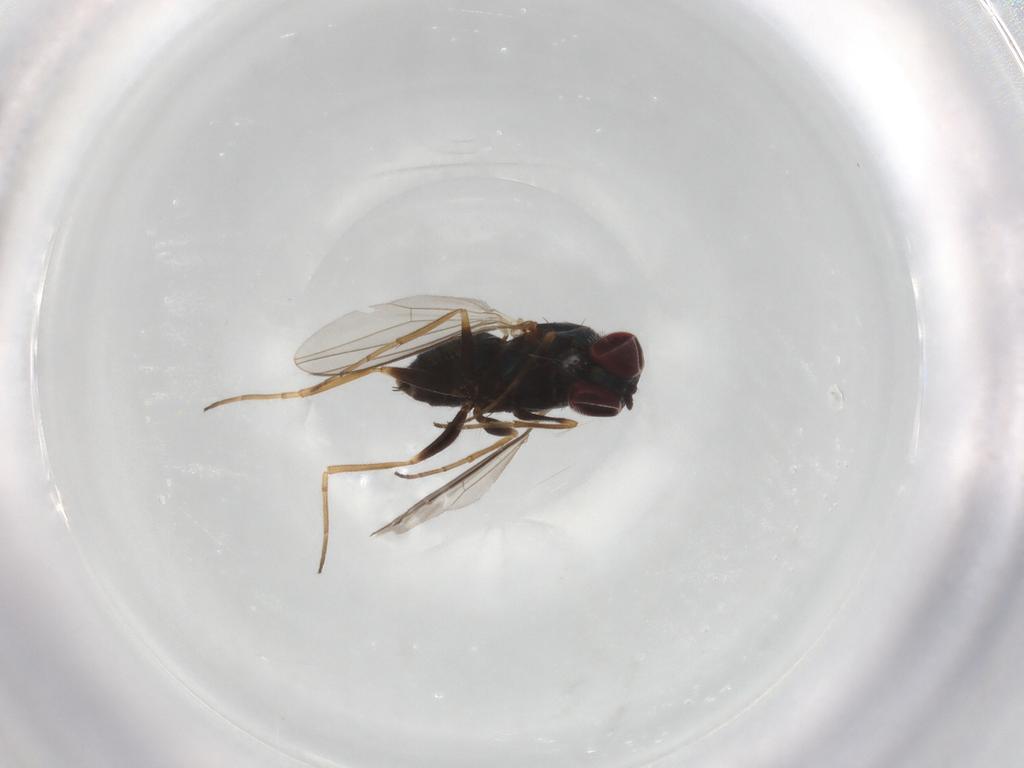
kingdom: Animalia
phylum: Arthropoda
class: Insecta
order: Diptera
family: Dolichopodidae
